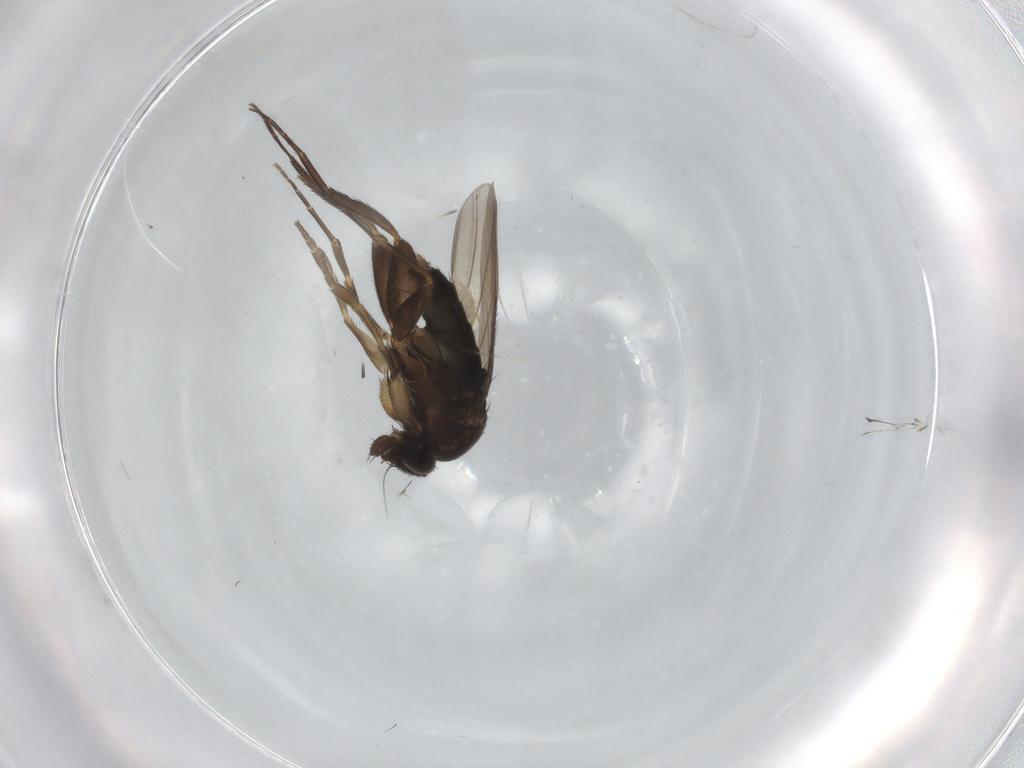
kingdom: Animalia
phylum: Arthropoda
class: Insecta
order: Diptera
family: Phoridae
